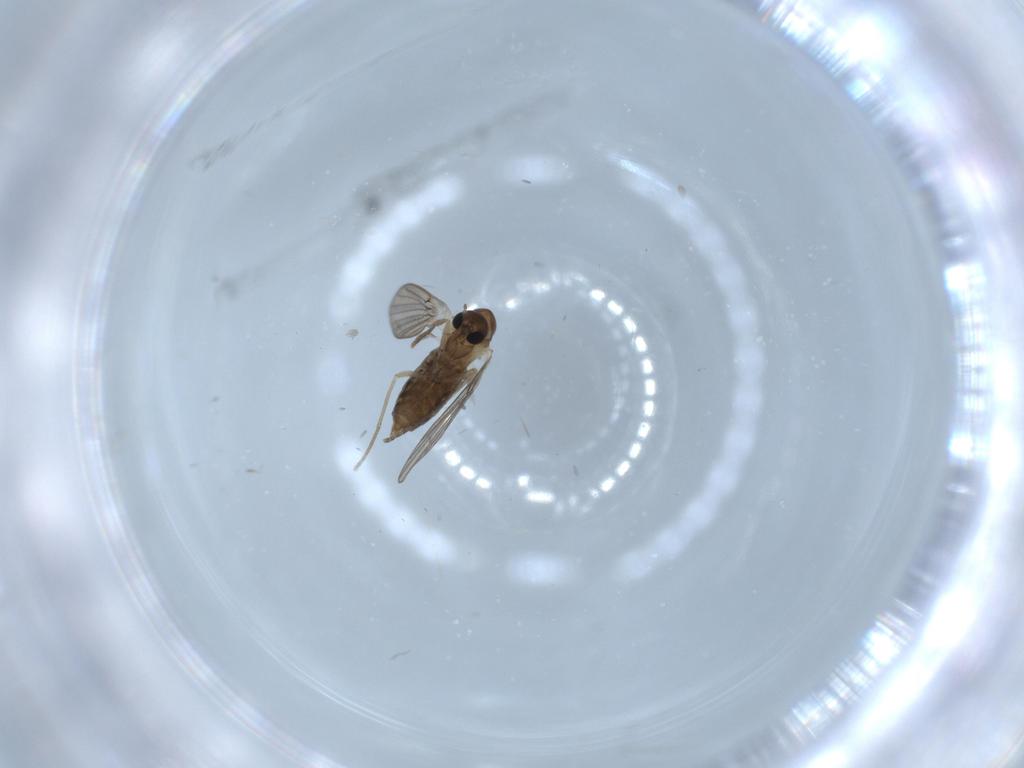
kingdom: Animalia
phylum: Arthropoda
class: Insecta
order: Diptera
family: Cecidomyiidae
